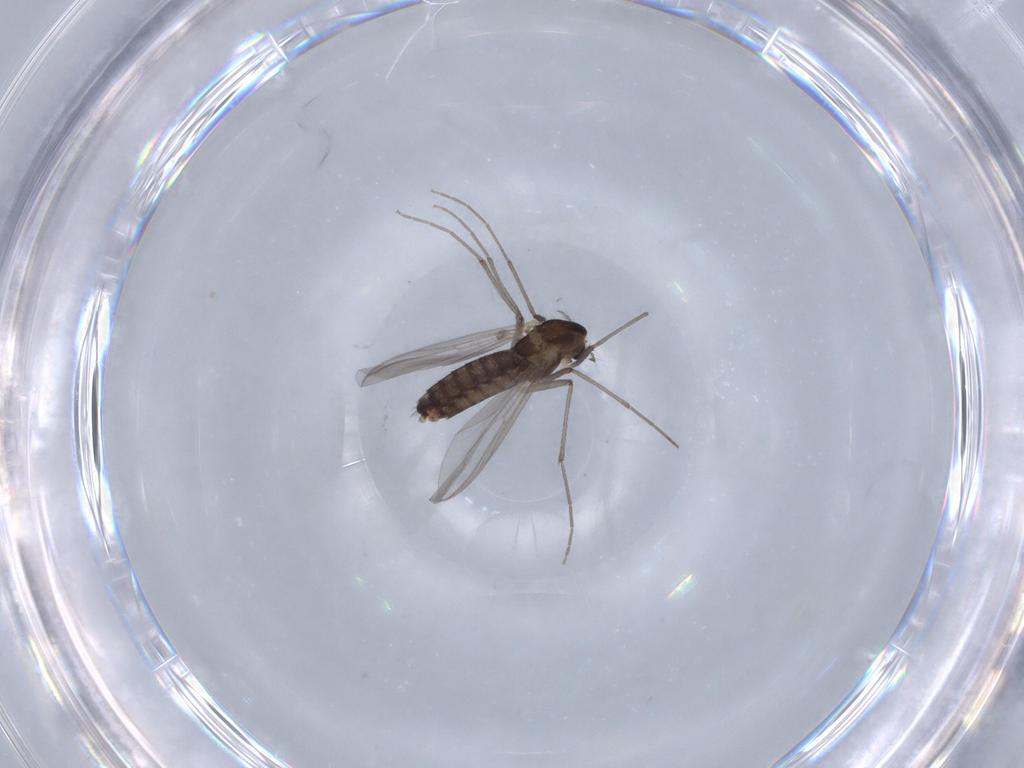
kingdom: Animalia
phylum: Arthropoda
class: Insecta
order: Diptera
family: Chironomidae
